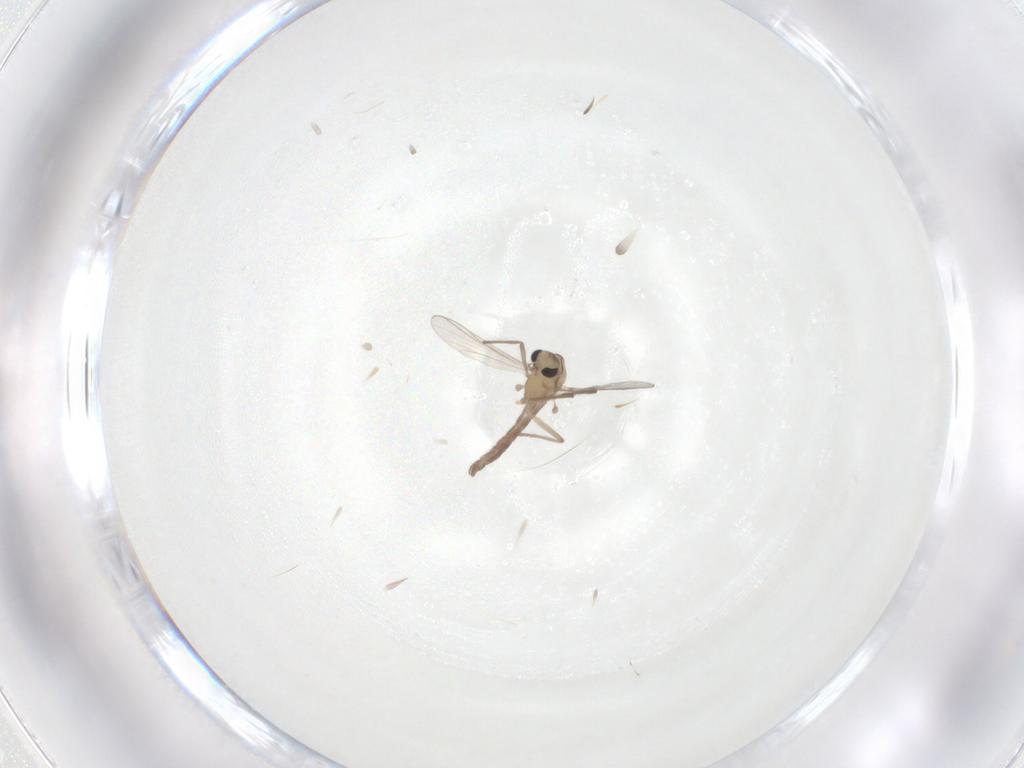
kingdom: Animalia
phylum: Arthropoda
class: Insecta
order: Diptera
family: Chironomidae
